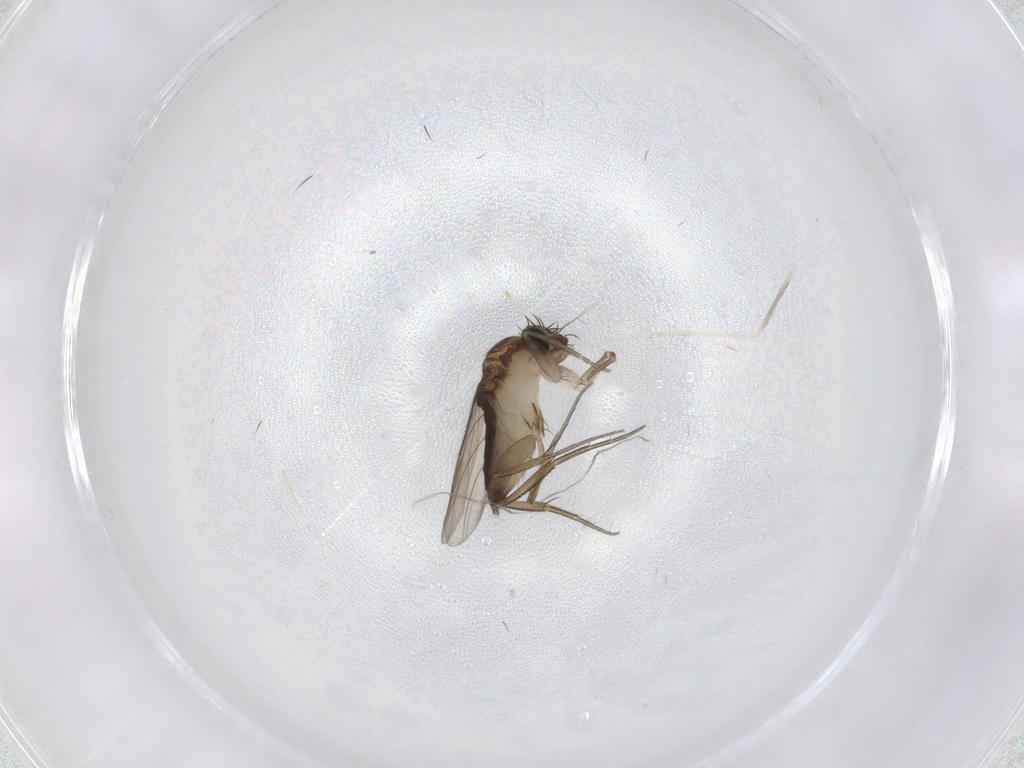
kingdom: Animalia
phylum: Arthropoda
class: Insecta
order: Diptera
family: Phoridae
